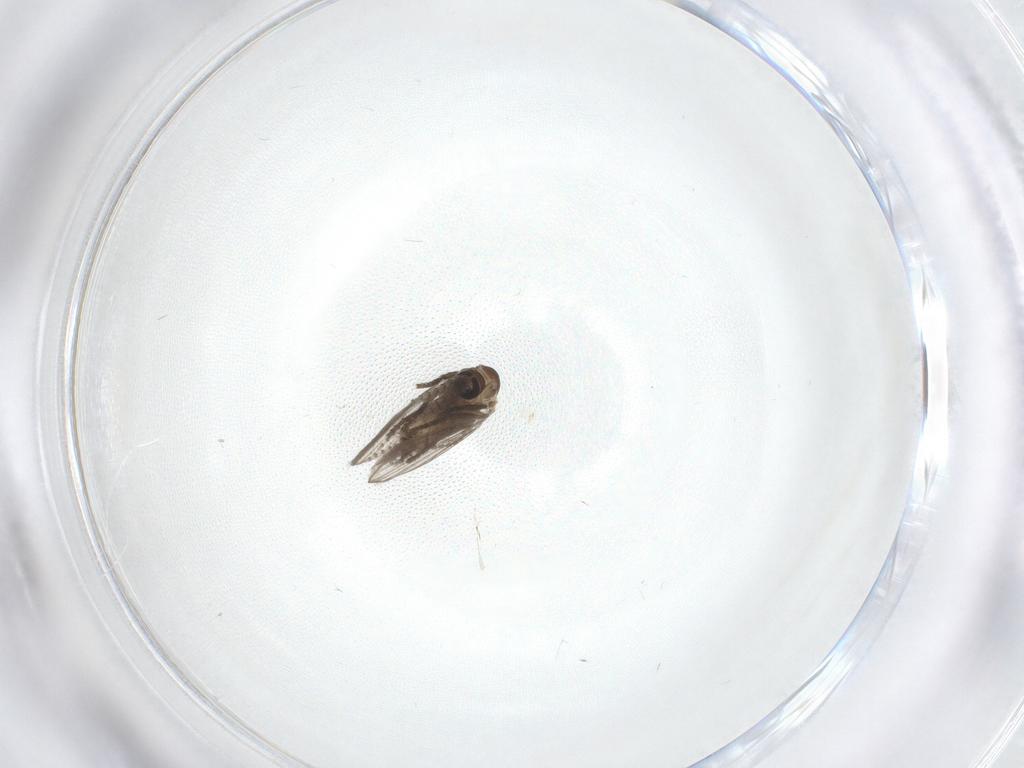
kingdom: Animalia
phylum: Arthropoda
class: Insecta
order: Diptera
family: Psychodidae
